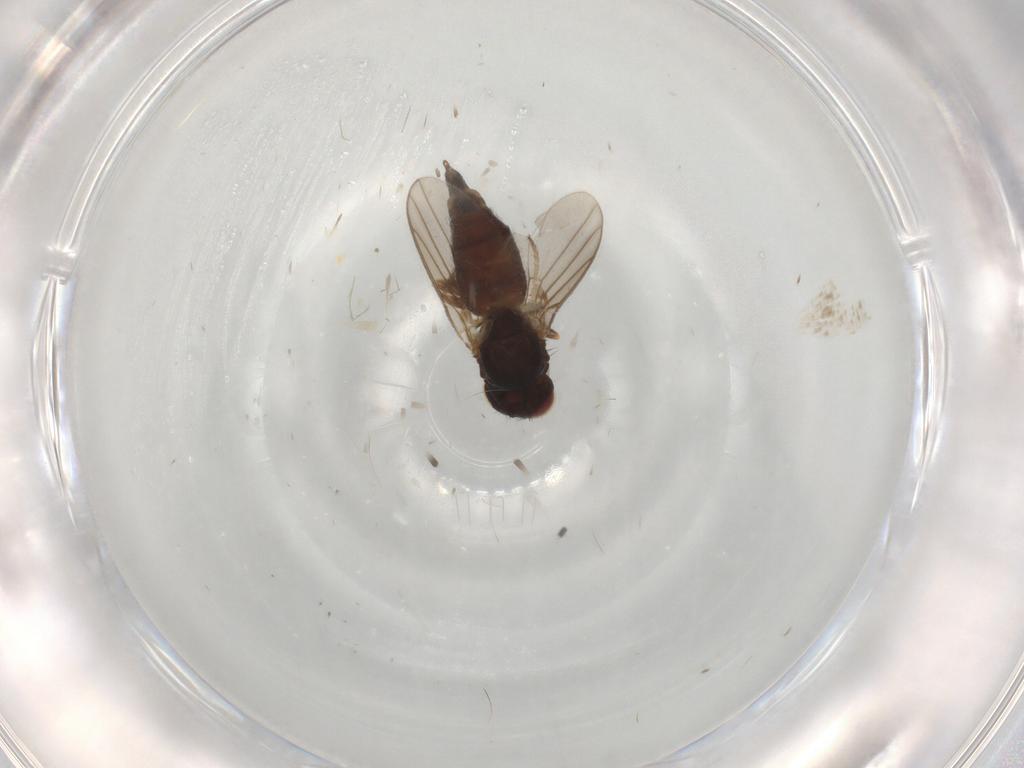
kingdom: Animalia
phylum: Arthropoda
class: Insecta
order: Diptera
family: Chloropidae
